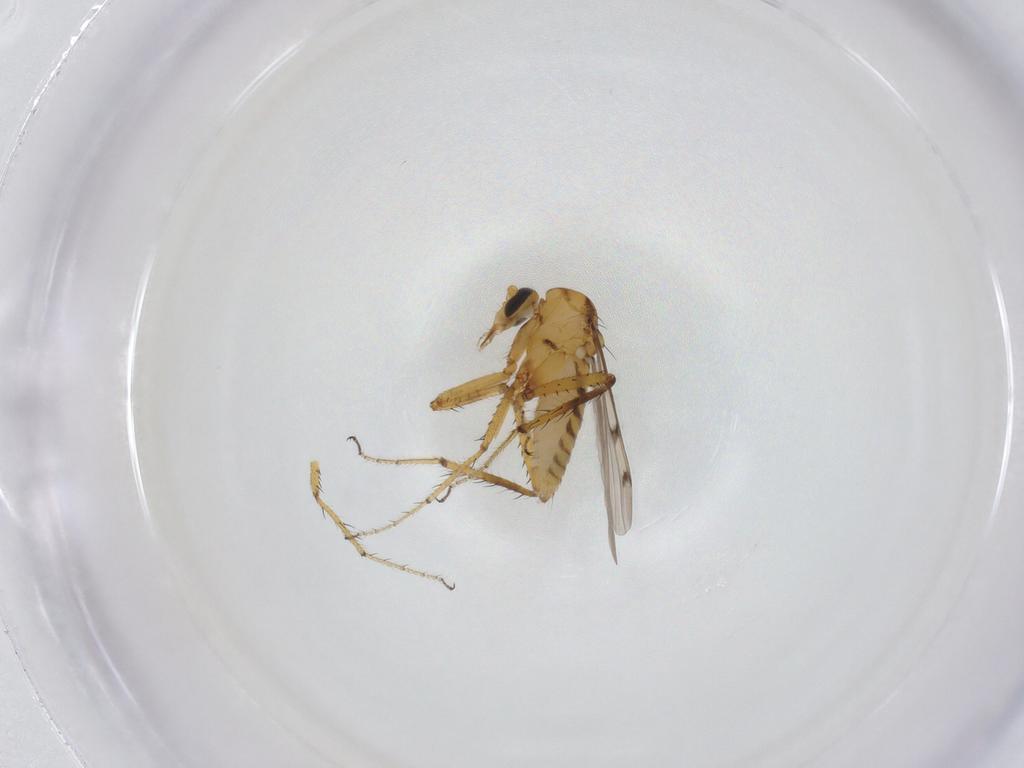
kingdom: Animalia
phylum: Arthropoda
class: Insecta
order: Diptera
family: Ceratopogonidae
